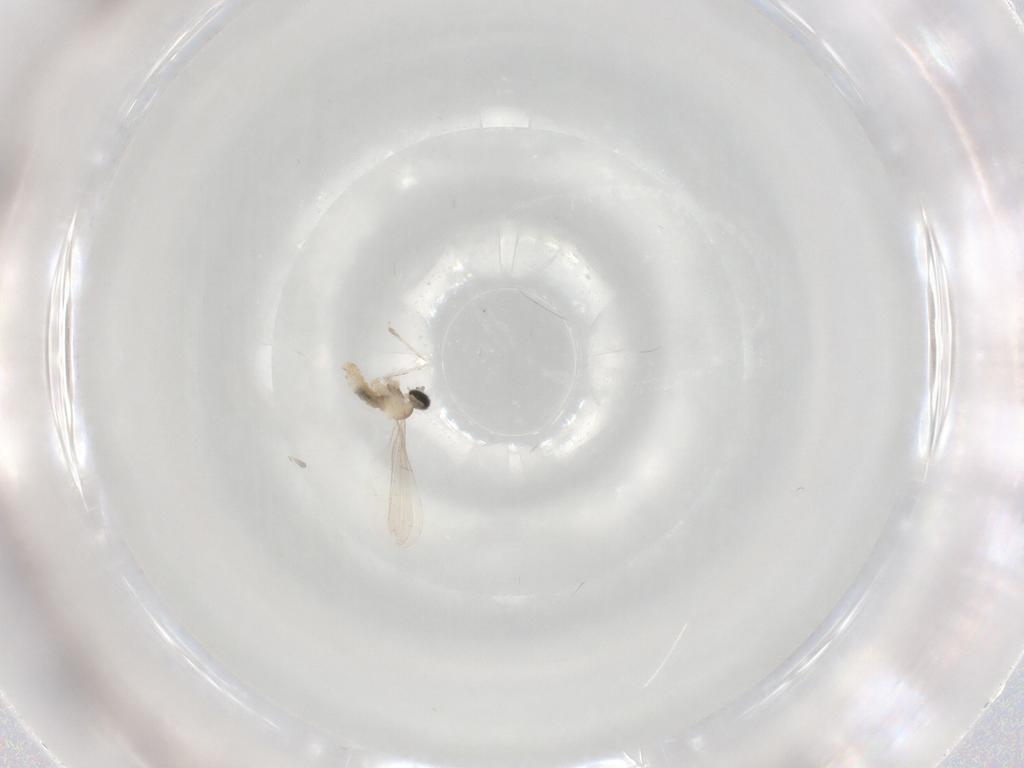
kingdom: Animalia
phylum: Arthropoda
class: Insecta
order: Diptera
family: Cecidomyiidae
